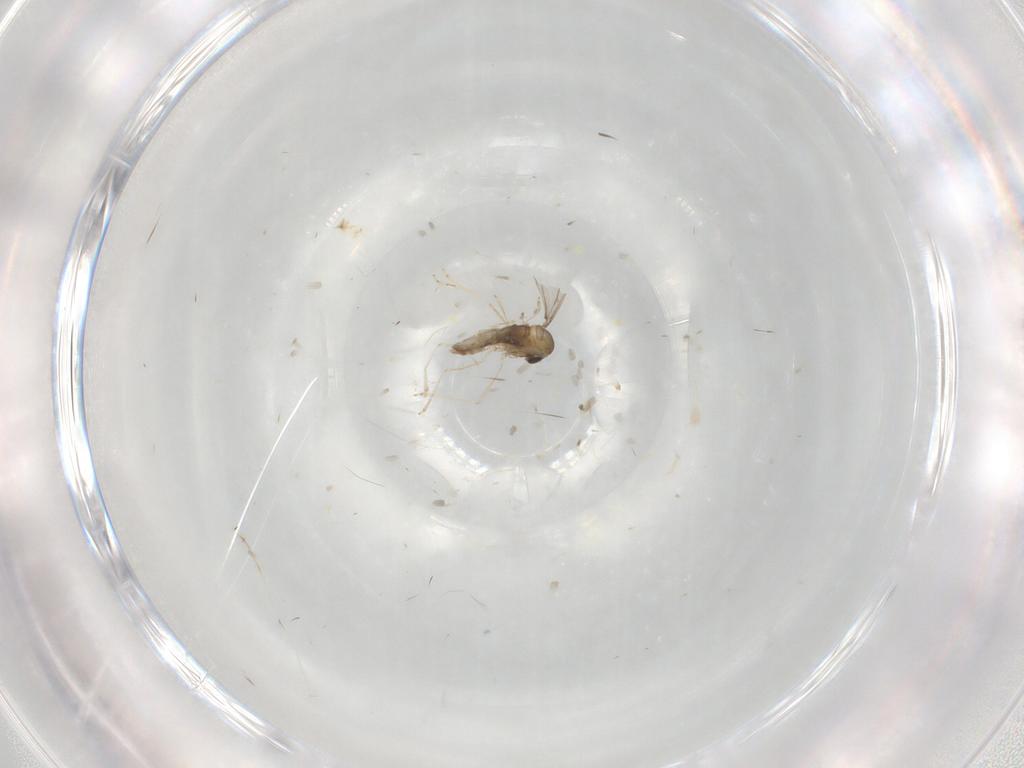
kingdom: Animalia
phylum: Arthropoda
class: Insecta
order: Diptera
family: Cecidomyiidae
